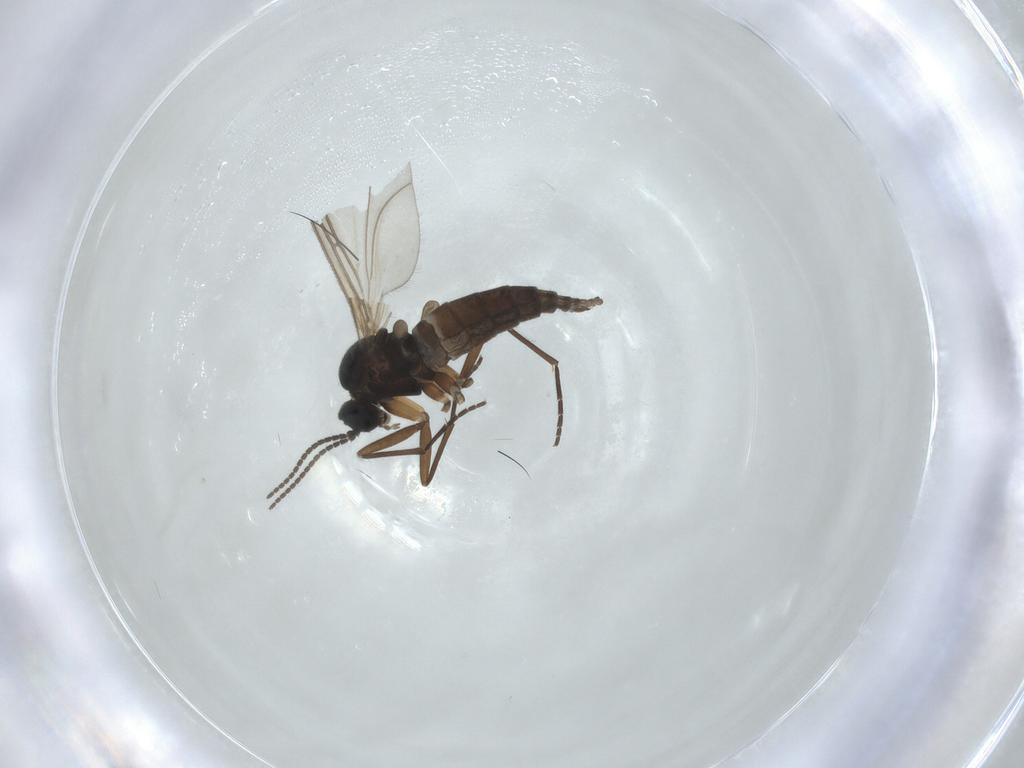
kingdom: Animalia
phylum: Arthropoda
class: Insecta
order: Diptera
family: Sciaridae
